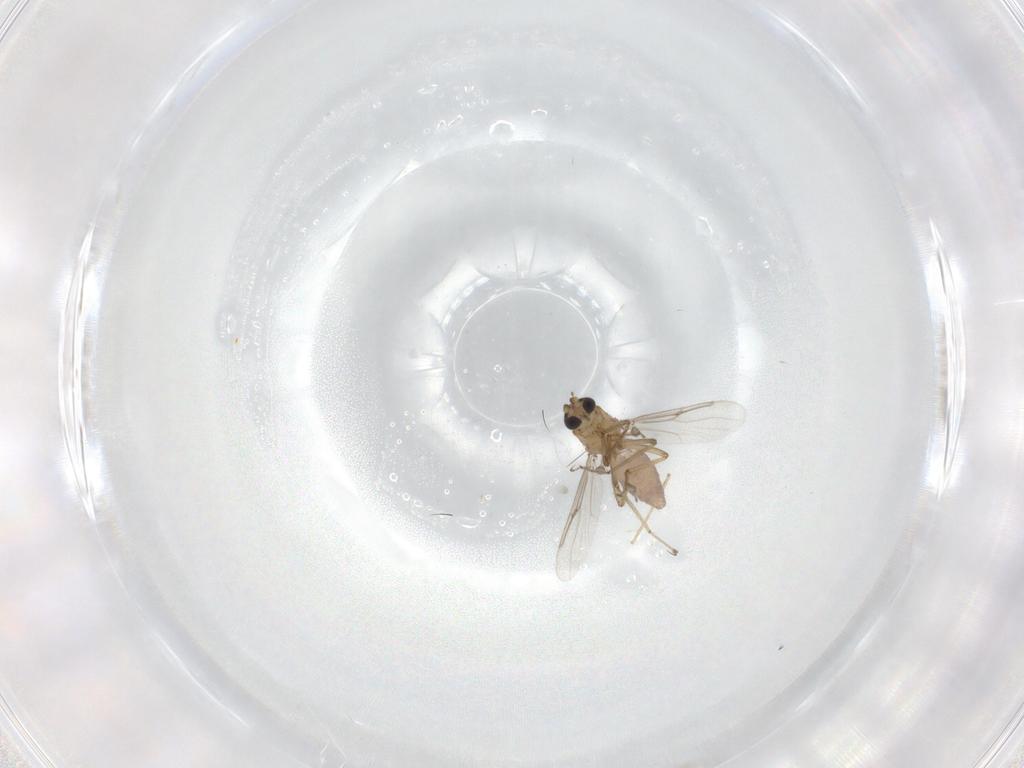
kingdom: Animalia
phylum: Arthropoda
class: Insecta
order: Diptera
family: Ceratopogonidae
